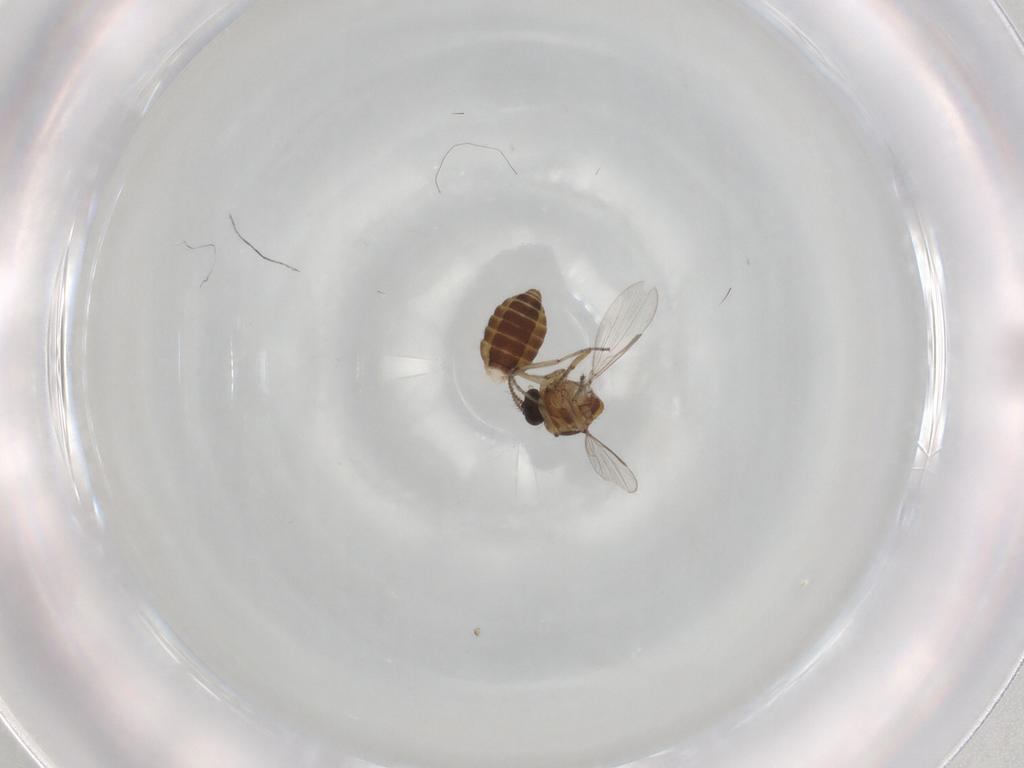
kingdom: Animalia
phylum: Arthropoda
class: Insecta
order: Diptera
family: Ceratopogonidae
